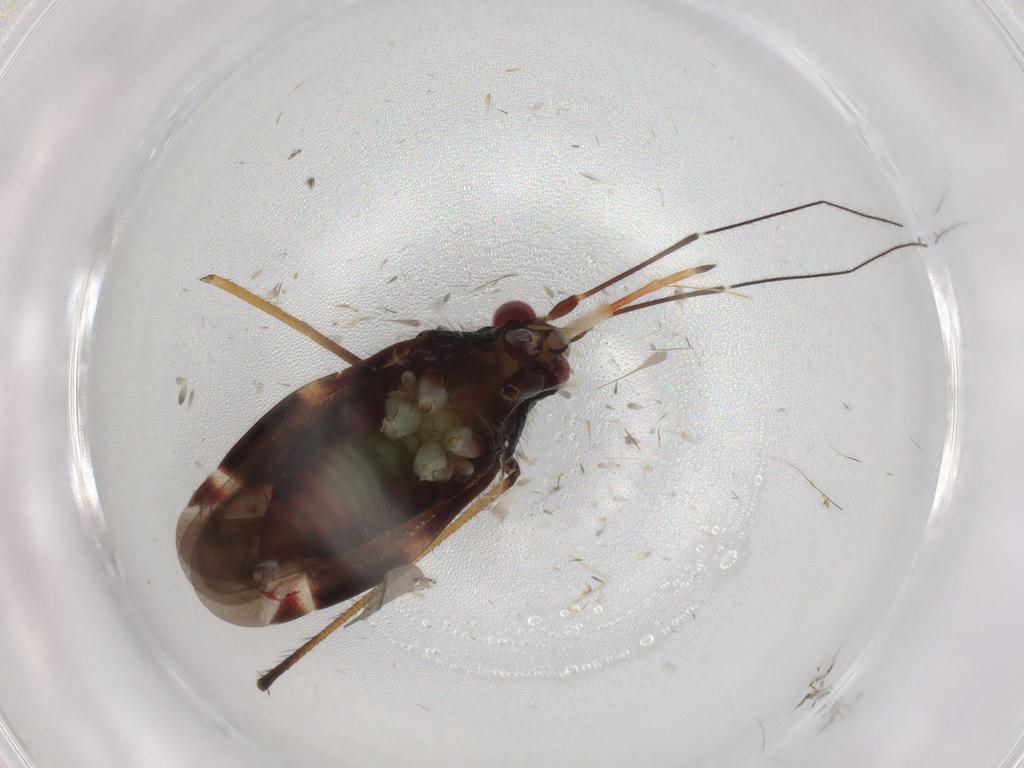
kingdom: Animalia
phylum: Arthropoda
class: Insecta
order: Hemiptera
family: Miridae
